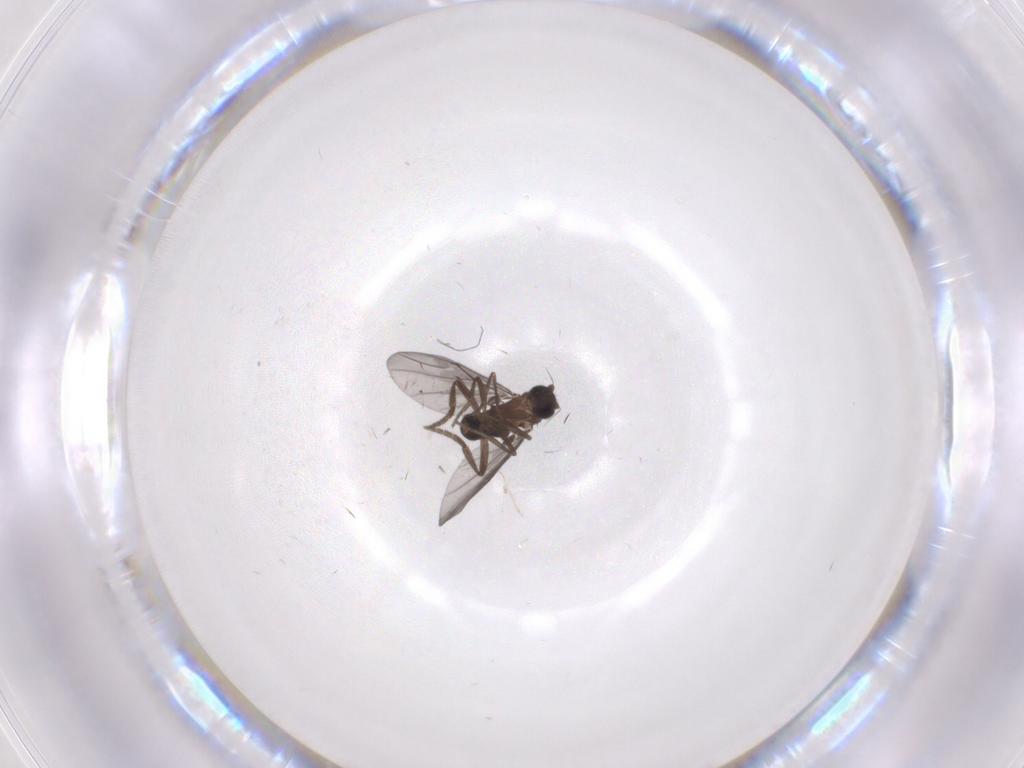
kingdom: Animalia
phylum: Arthropoda
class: Insecta
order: Diptera
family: Phoridae
